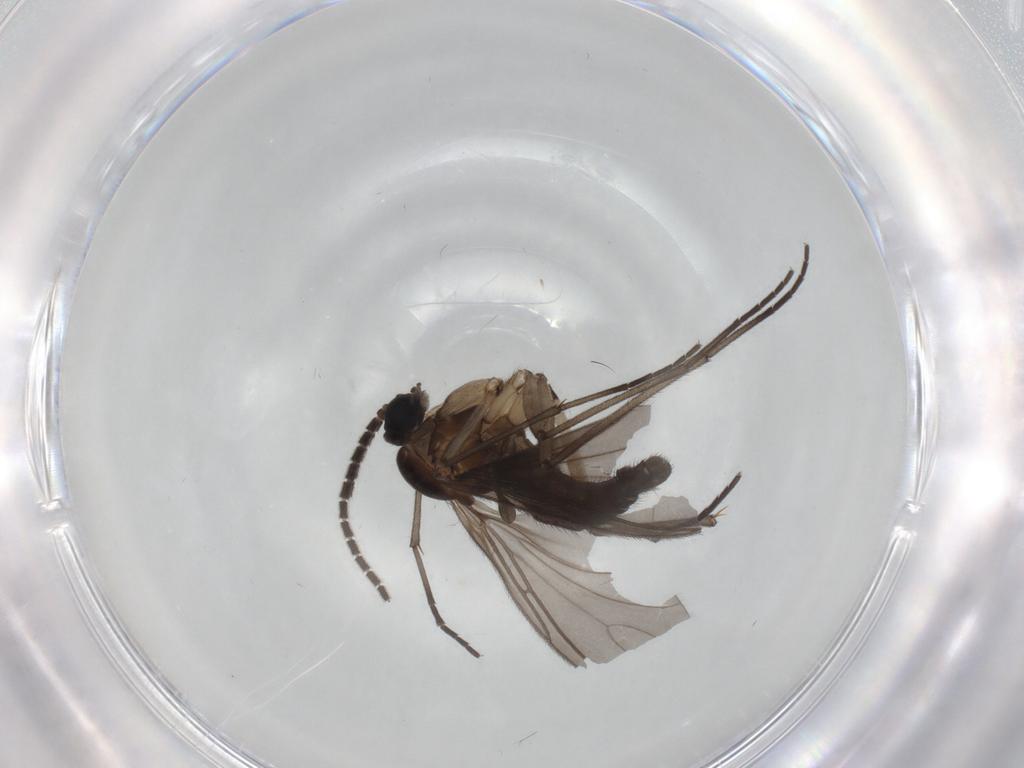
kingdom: Animalia
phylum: Arthropoda
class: Insecta
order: Diptera
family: Sciaridae
